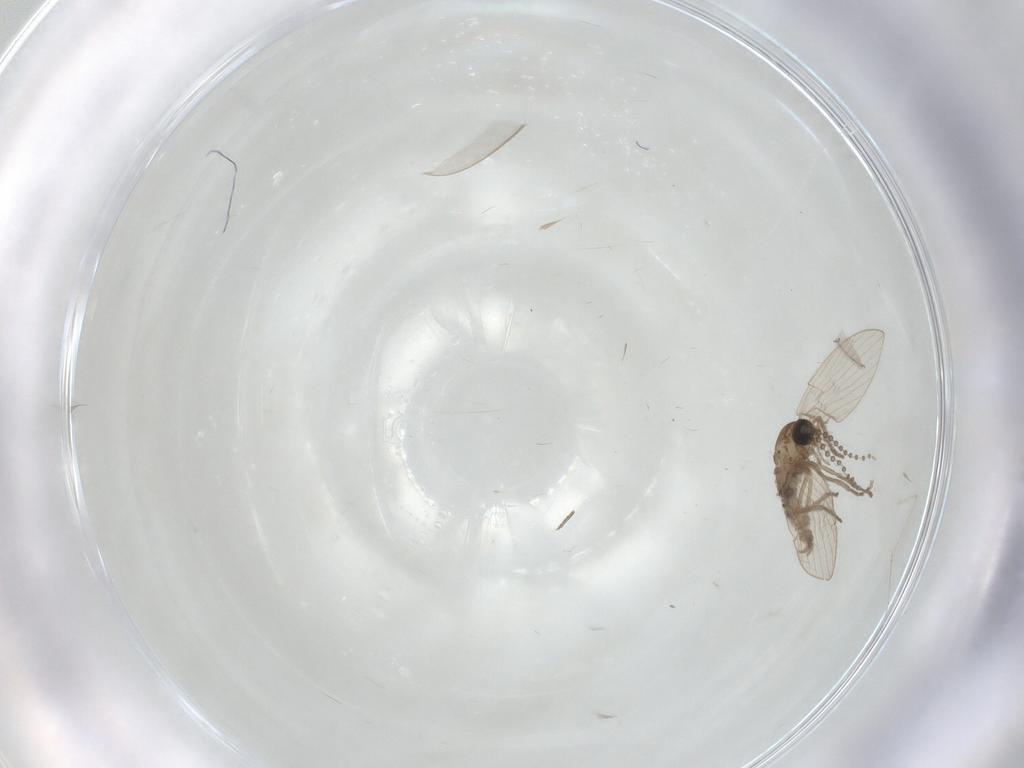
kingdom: Animalia
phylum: Arthropoda
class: Insecta
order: Diptera
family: Psychodidae
